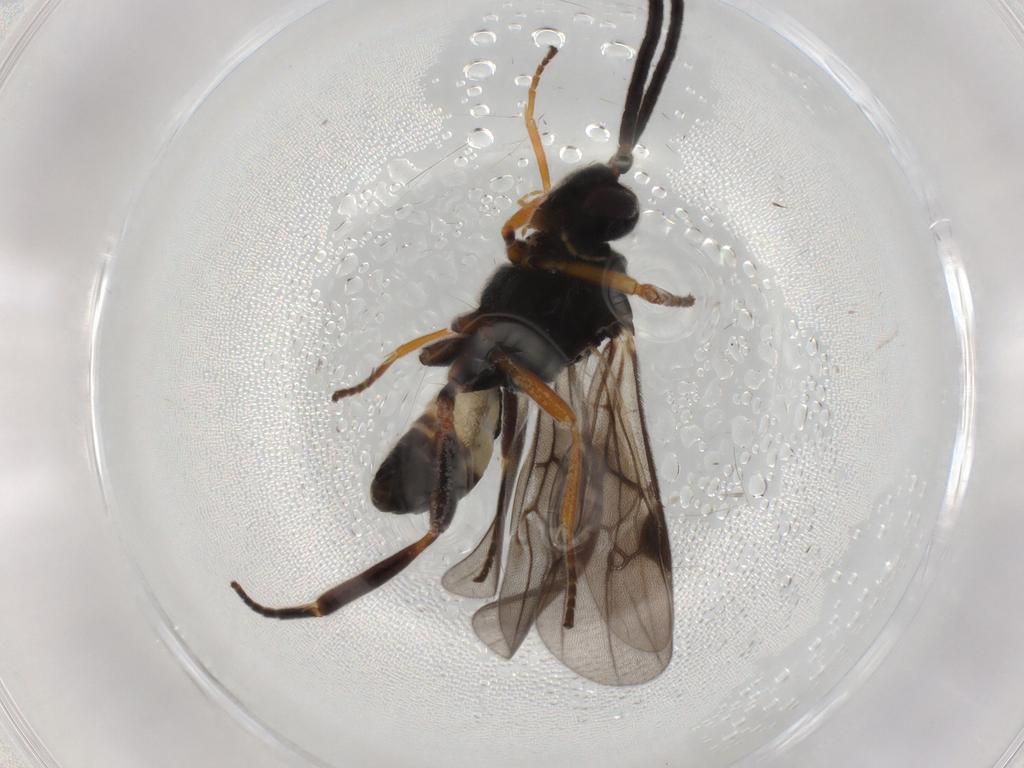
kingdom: Animalia
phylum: Arthropoda
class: Insecta
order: Hymenoptera
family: Braconidae
